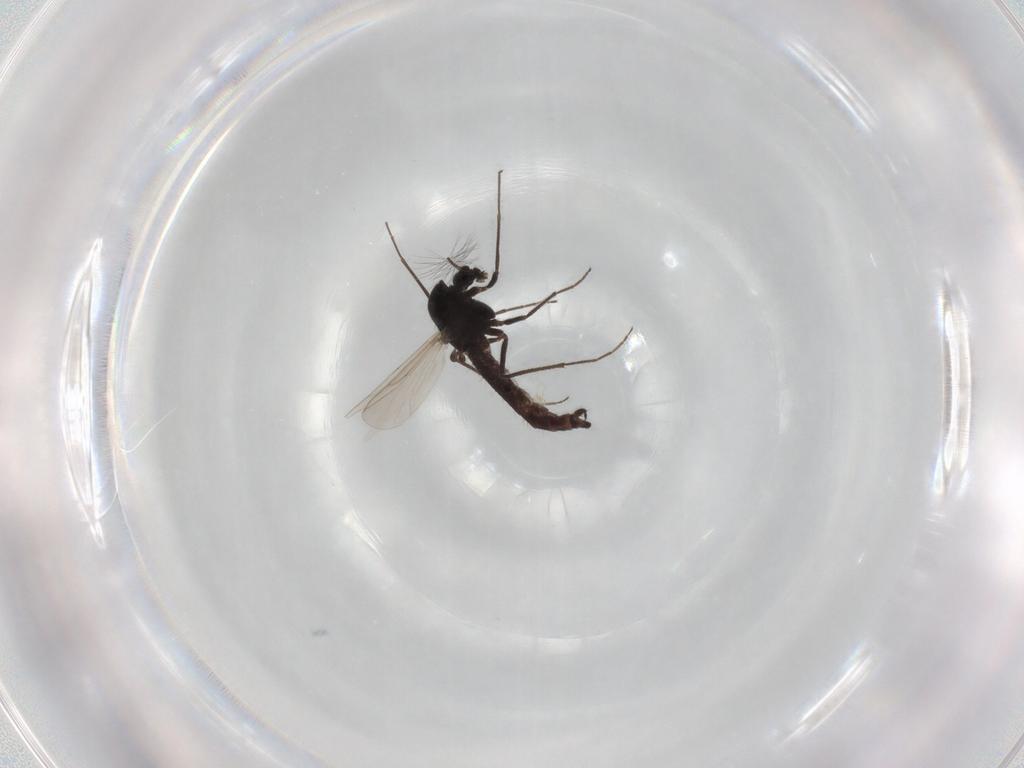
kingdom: Animalia
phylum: Arthropoda
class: Insecta
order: Diptera
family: Chironomidae
